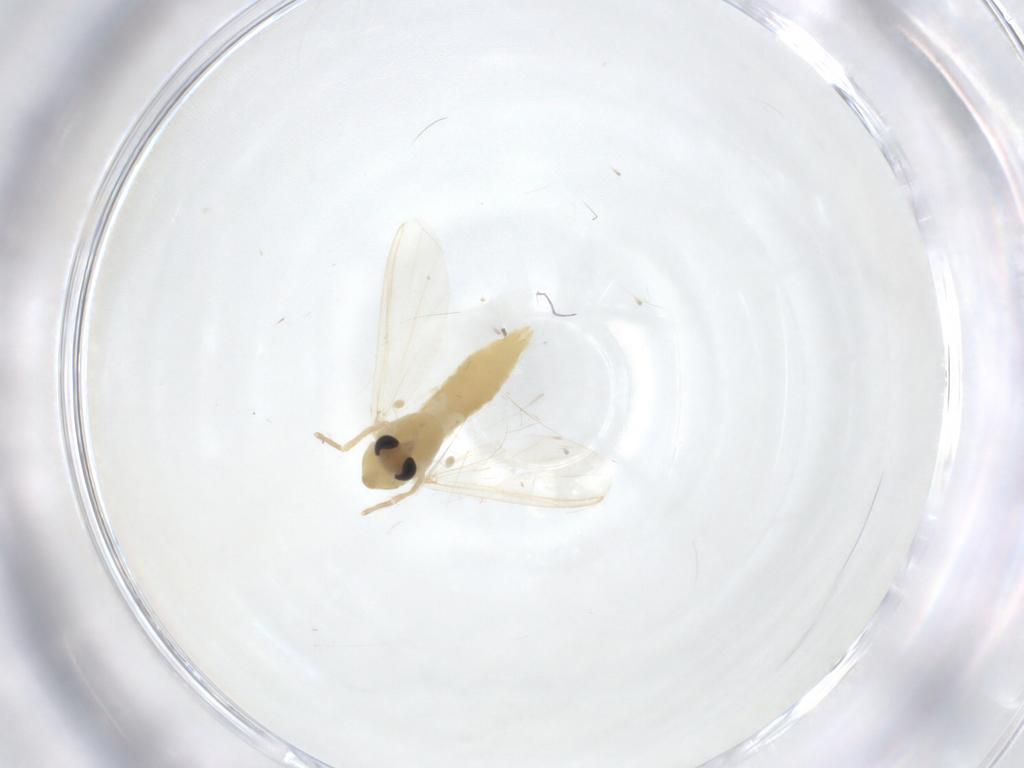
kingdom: Animalia
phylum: Arthropoda
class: Insecta
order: Diptera
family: Chironomidae
